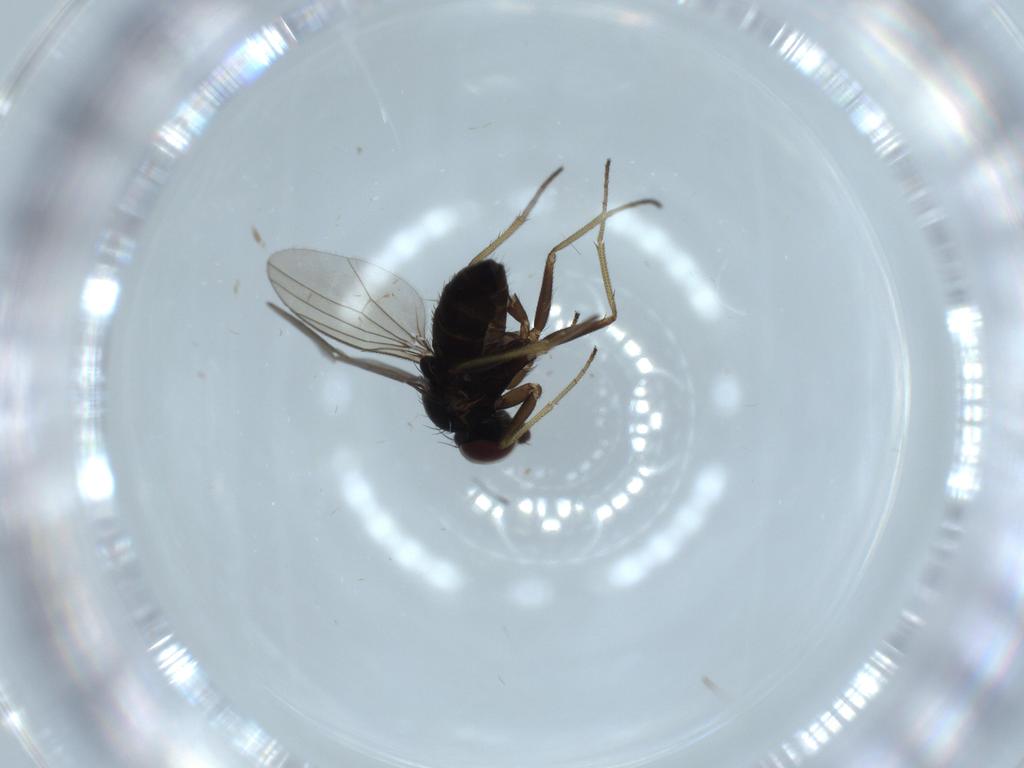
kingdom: Animalia
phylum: Arthropoda
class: Insecta
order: Diptera
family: Dolichopodidae
